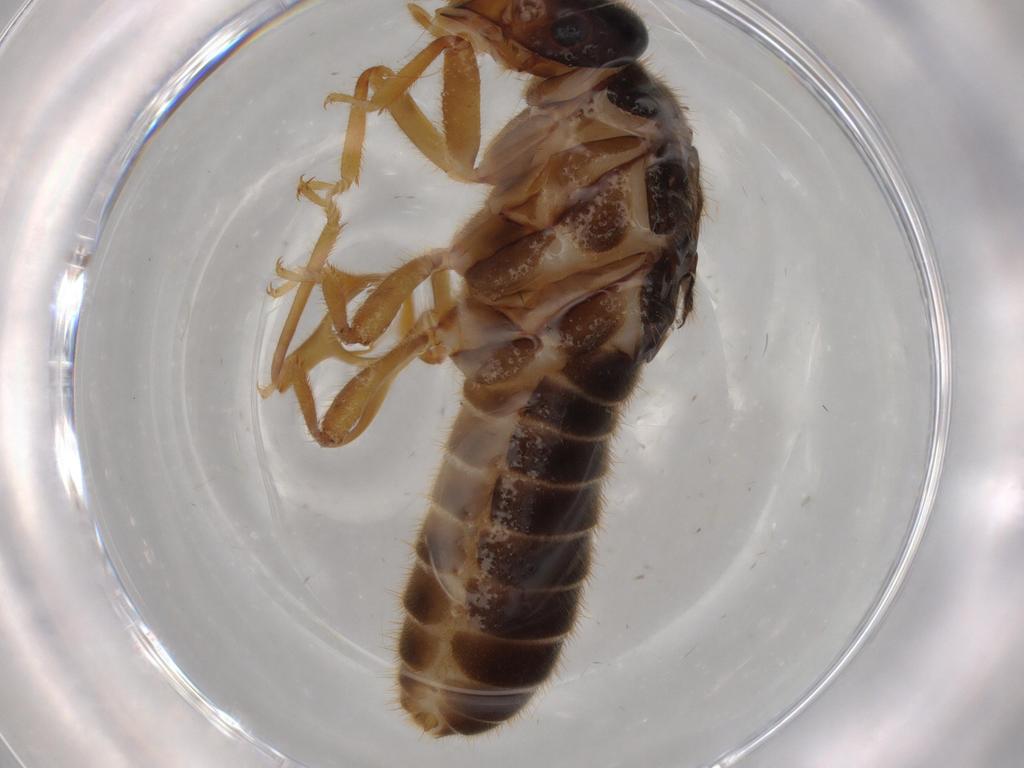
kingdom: Animalia
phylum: Arthropoda
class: Insecta
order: Blattodea
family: Termitidae
